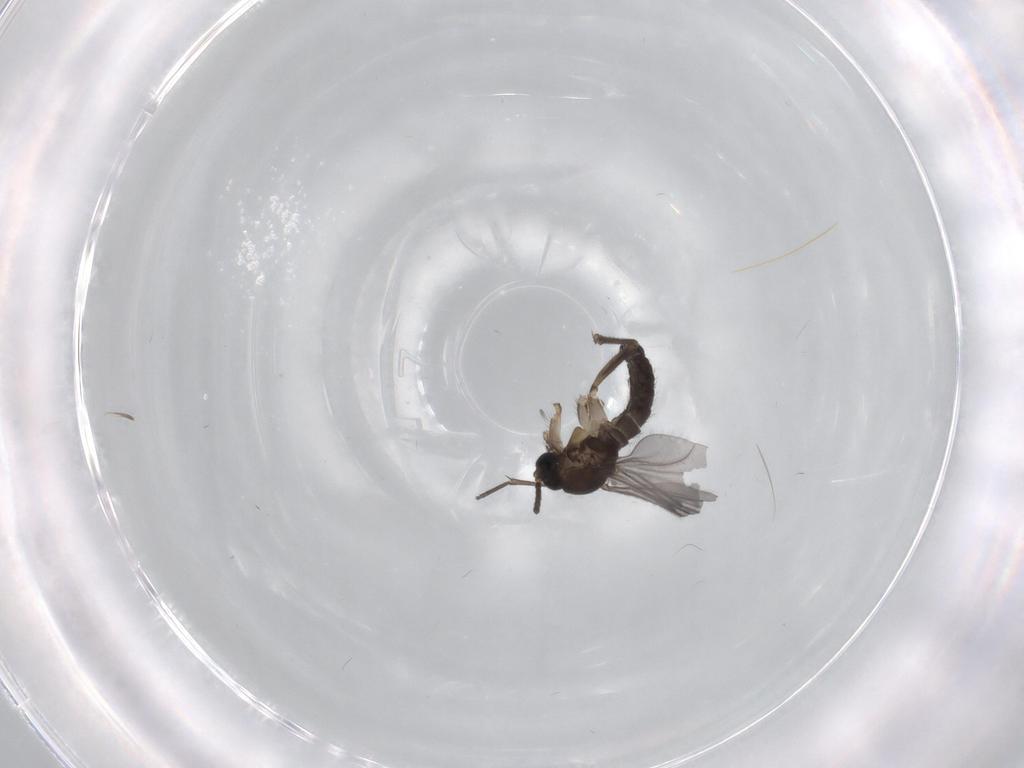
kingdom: Animalia
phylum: Arthropoda
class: Insecta
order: Diptera
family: Sciaridae
